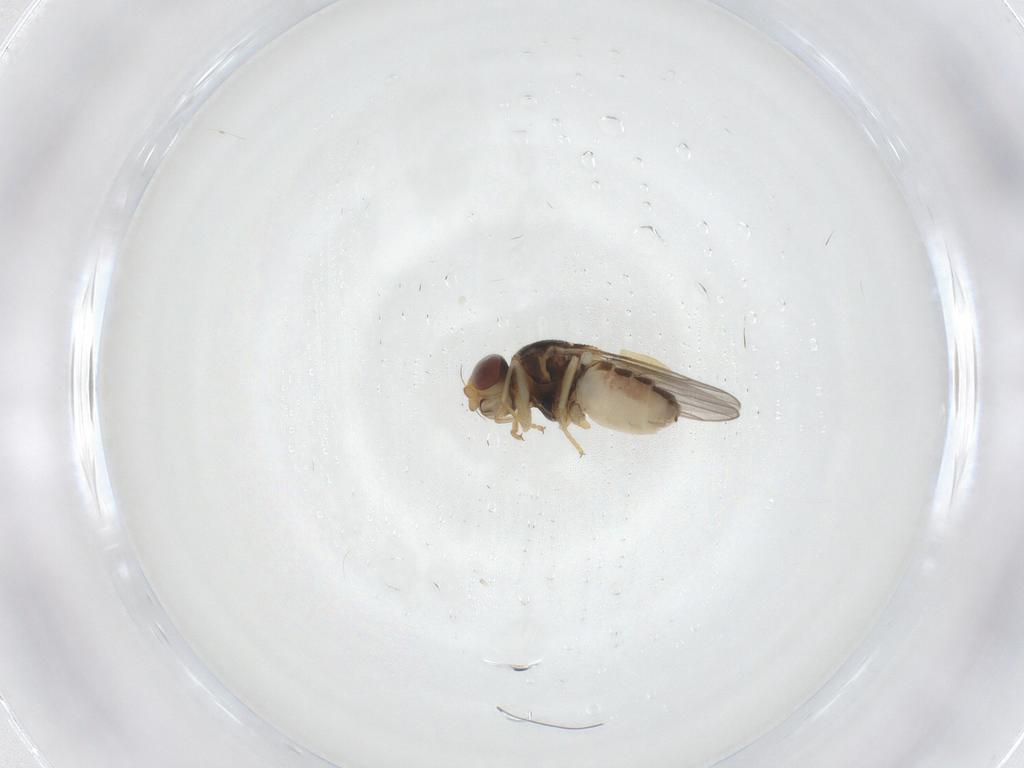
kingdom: Animalia
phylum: Arthropoda
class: Insecta
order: Diptera
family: Chloropidae
